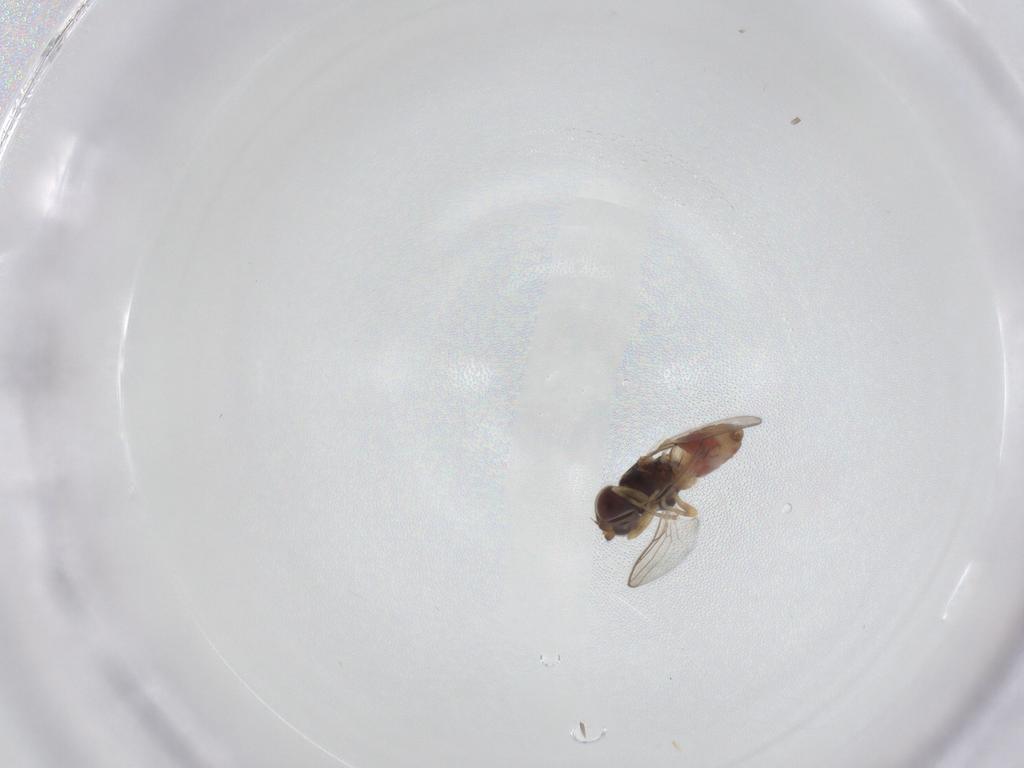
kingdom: Animalia
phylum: Arthropoda
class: Insecta
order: Diptera
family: Chloropidae
